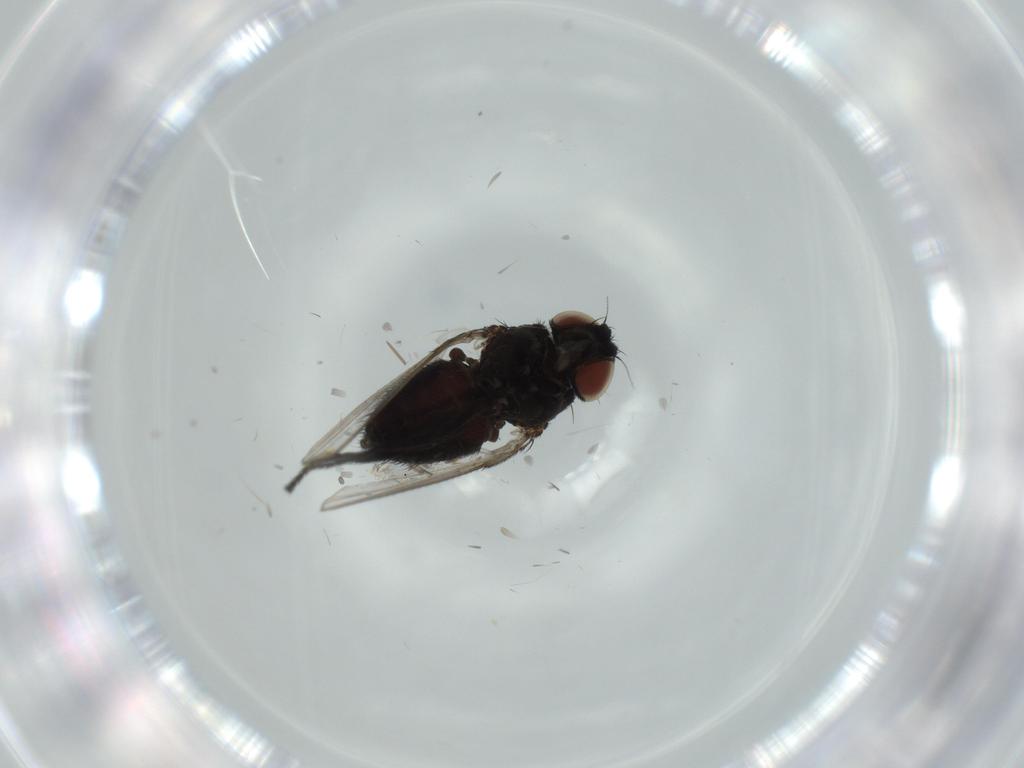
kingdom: Animalia
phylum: Arthropoda
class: Insecta
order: Diptera
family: Milichiidae
